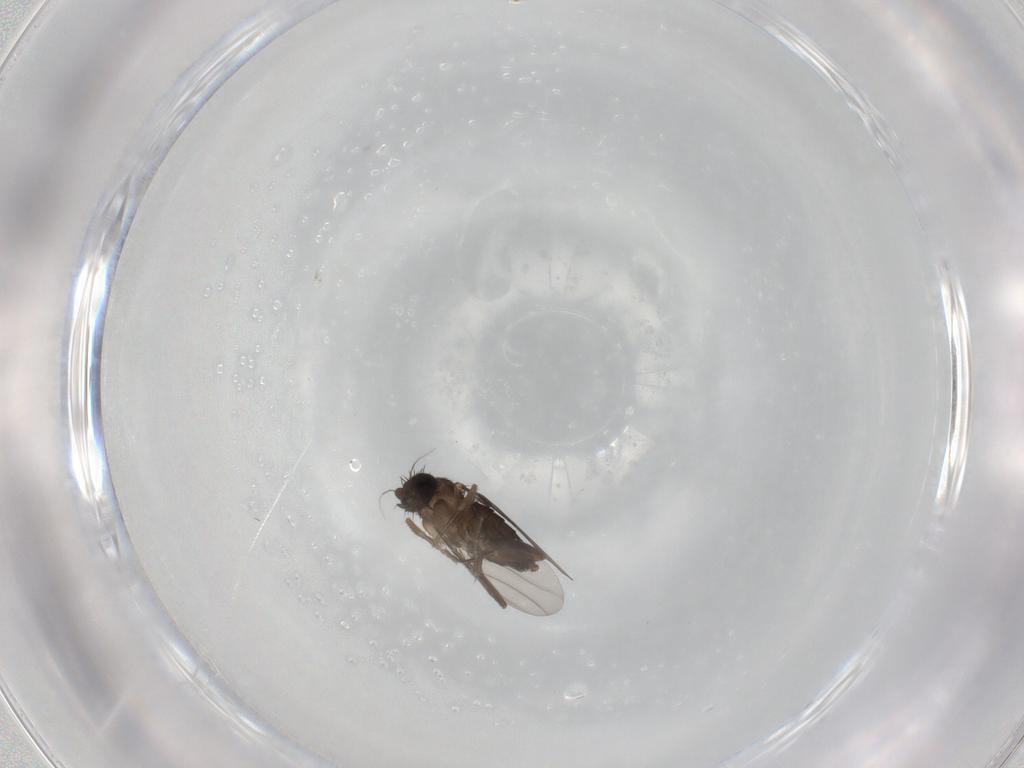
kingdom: Animalia
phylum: Arthropoda
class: Insecta
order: Diptera
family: Phoridae
